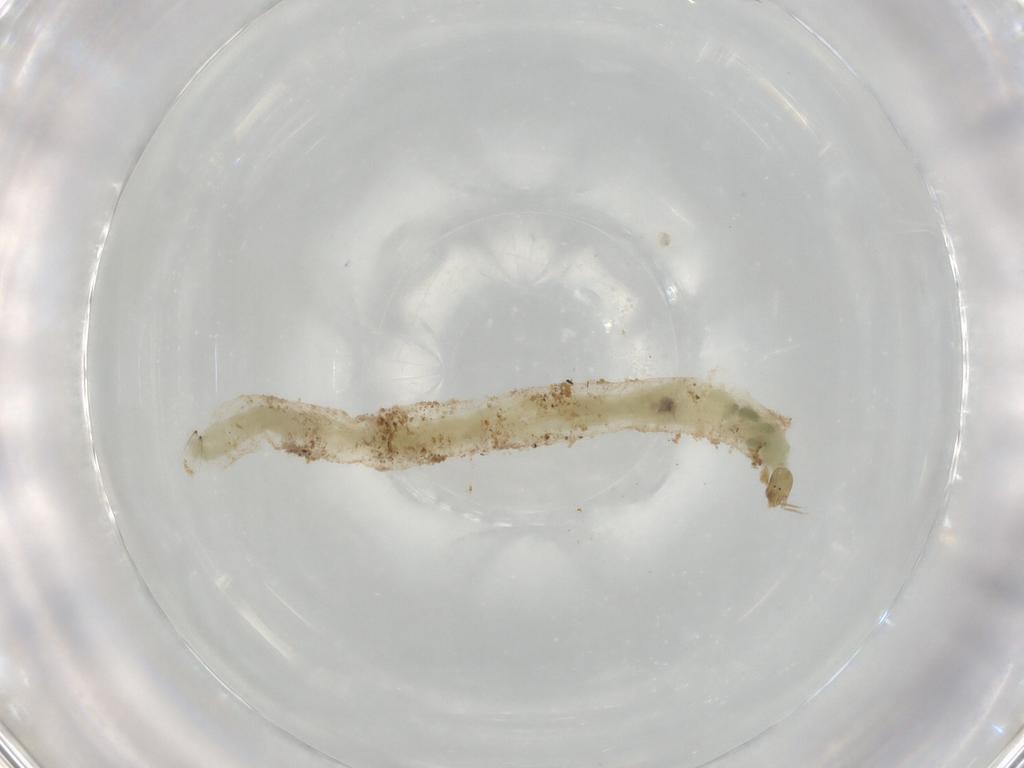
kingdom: Animalia
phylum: Arthropoda
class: Insecta
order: Diptera
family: Chironomidae
